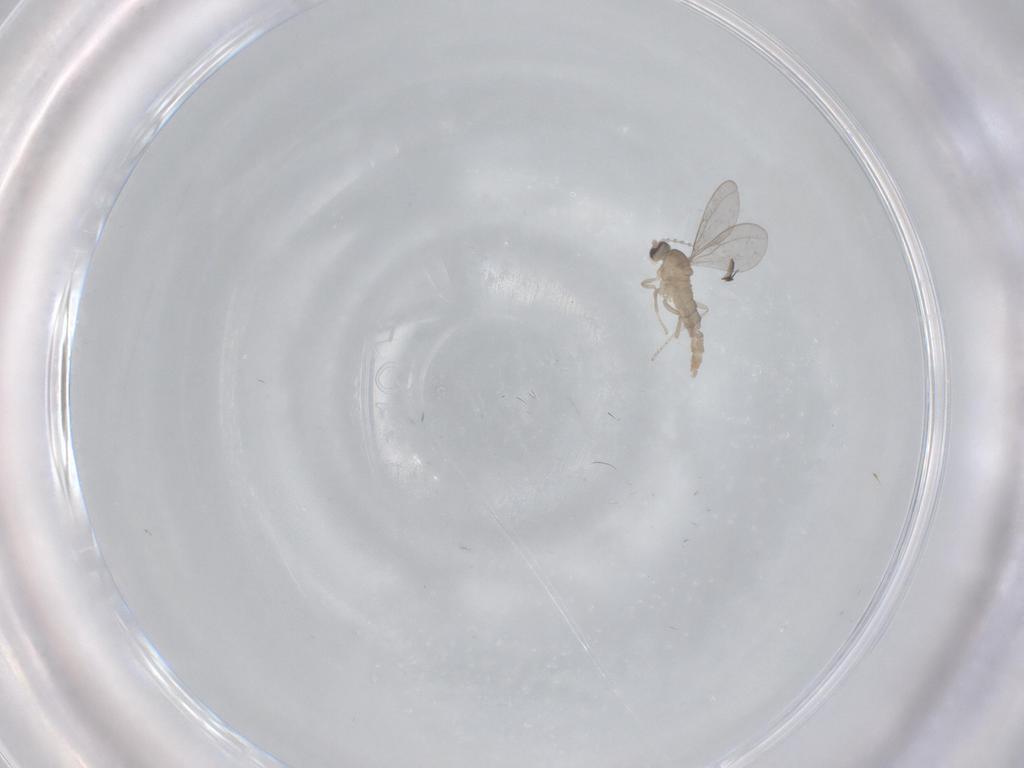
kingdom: Animalia
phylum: Arthropoda
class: Insecta
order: Diptera
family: Cecidomyiidae
